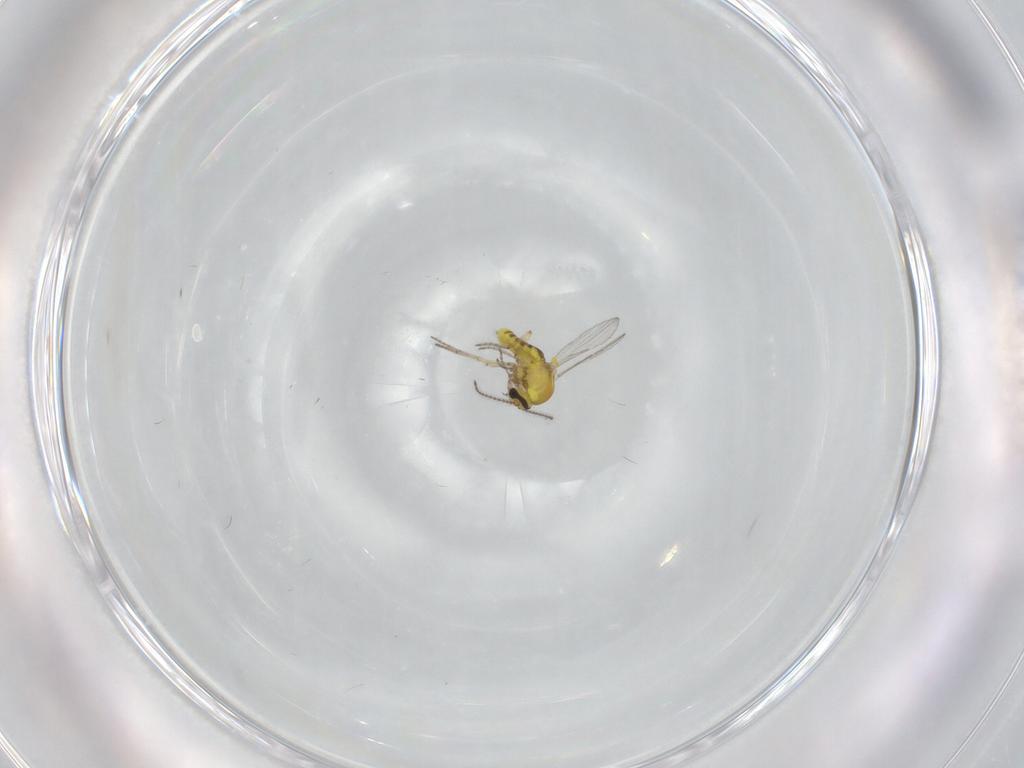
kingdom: Animalia
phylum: Arthropoda
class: Insecta
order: Diptera
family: Ceratopogonidae
